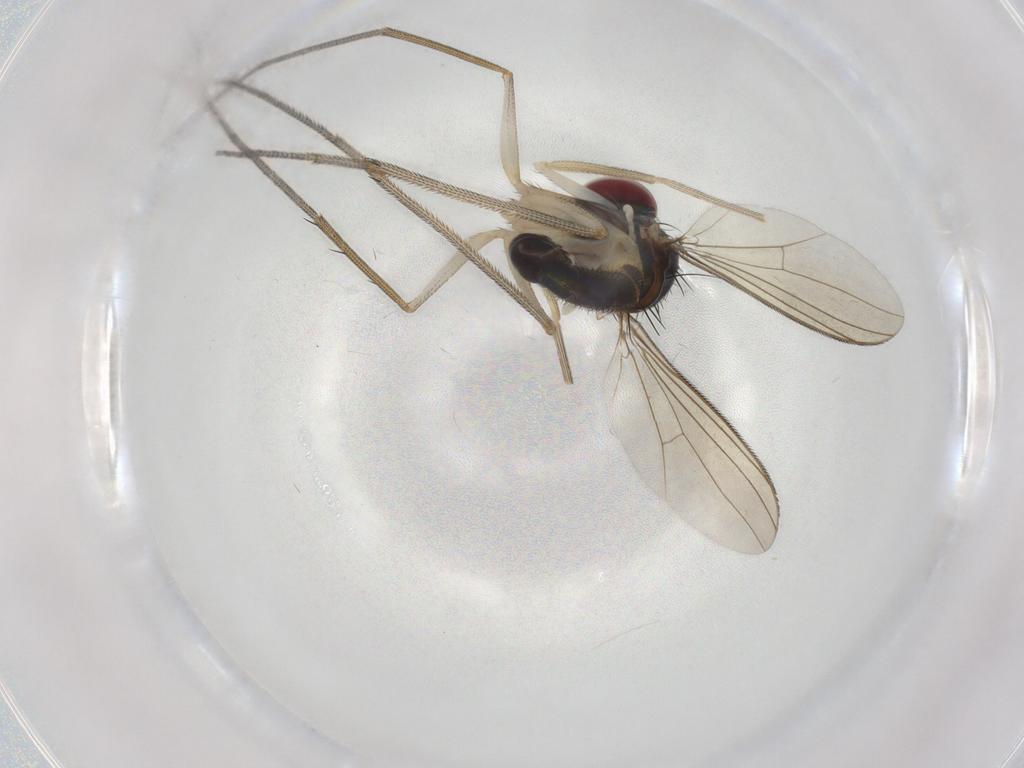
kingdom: Animalia
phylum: Arthropoda
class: Insecta
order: Diptera
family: Dolichopodidae
